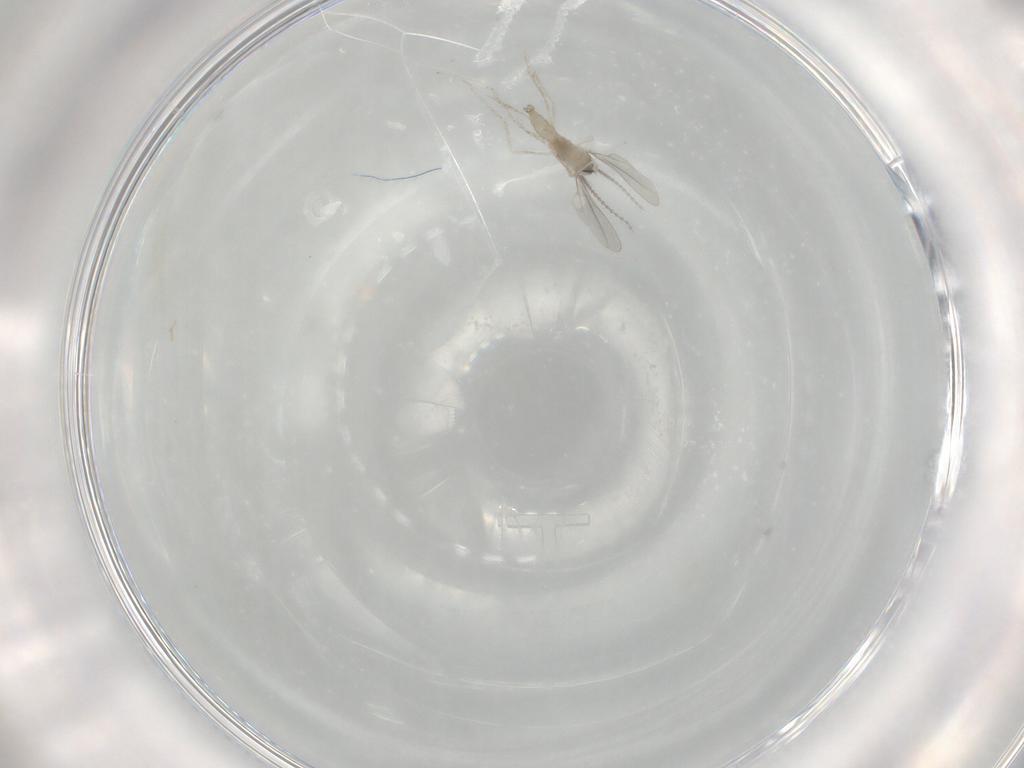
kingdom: Animalia
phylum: Arthropoda
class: Insecta
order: Diptera
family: Cecidomyiidae
